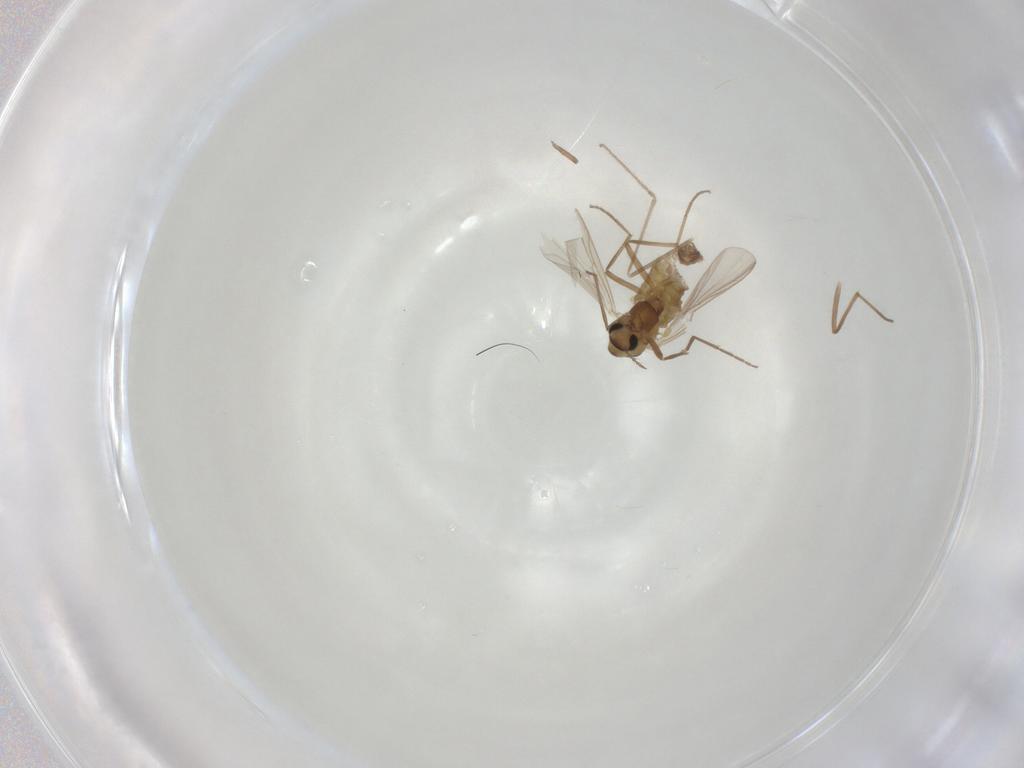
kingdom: Animalia
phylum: Arthropoda
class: Insecta
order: Diptera
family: Chironomidae
